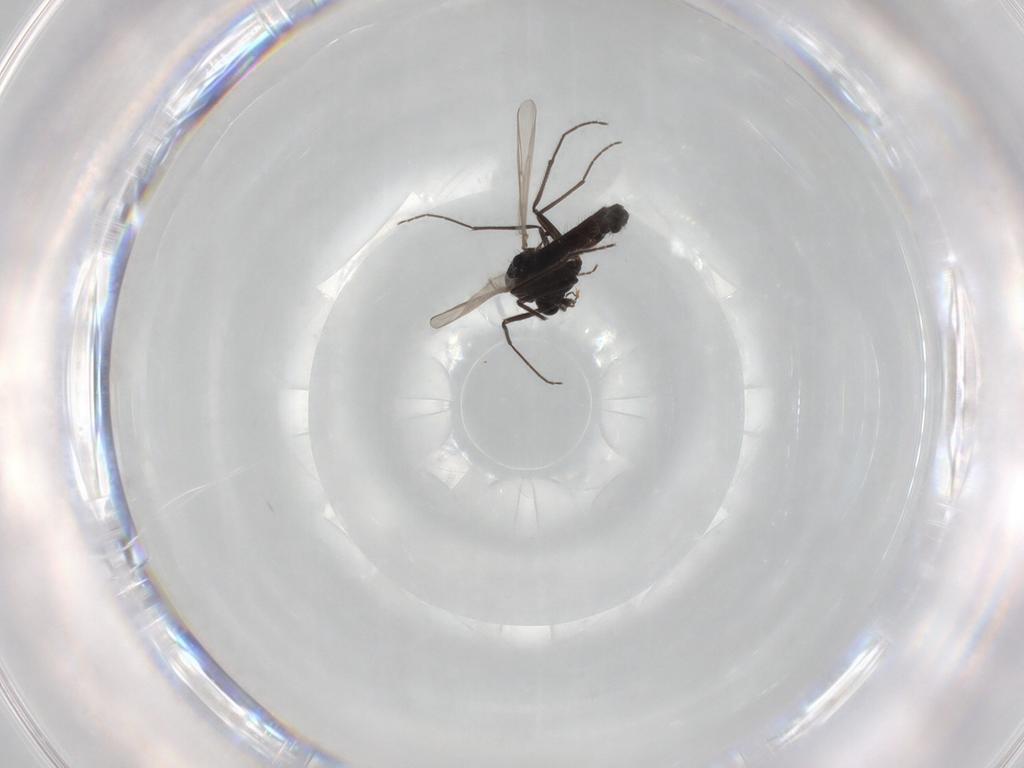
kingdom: Animalia
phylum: Arthropoda
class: Insecta
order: Diptera
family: Chironomidae
